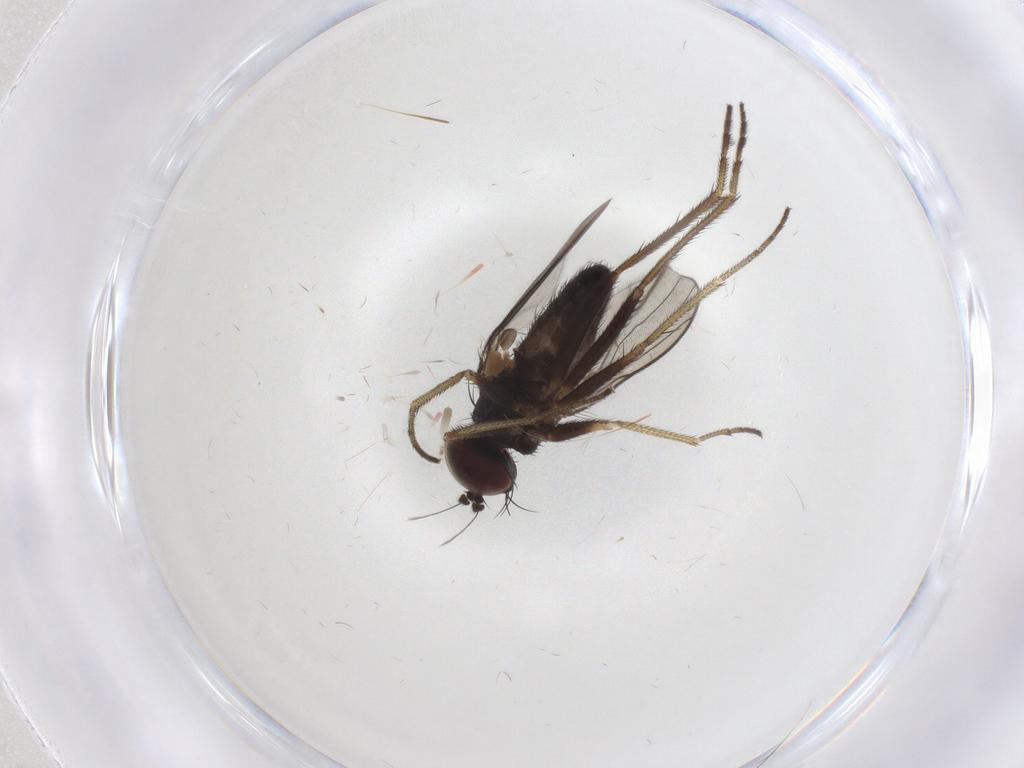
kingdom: Animalia
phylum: Arthropoda
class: Insecta
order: Diptera
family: Dolichopodidae
